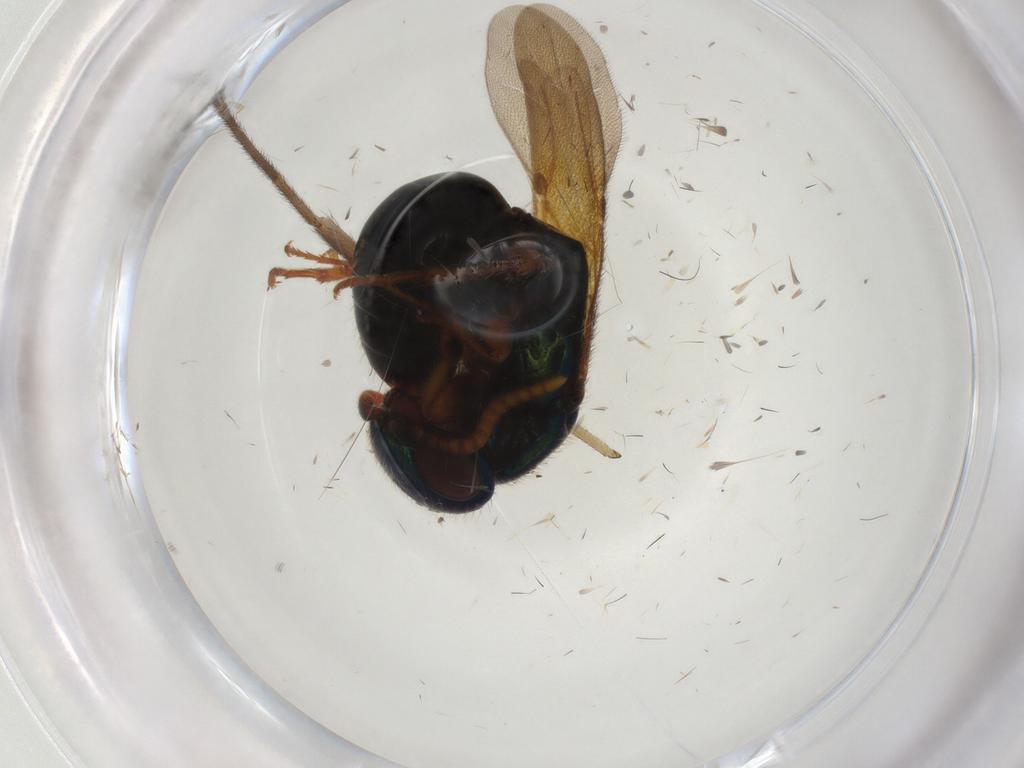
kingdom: Animalia
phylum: Arthropoda
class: Insecta
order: Hymenoptera
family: Bethylidae
